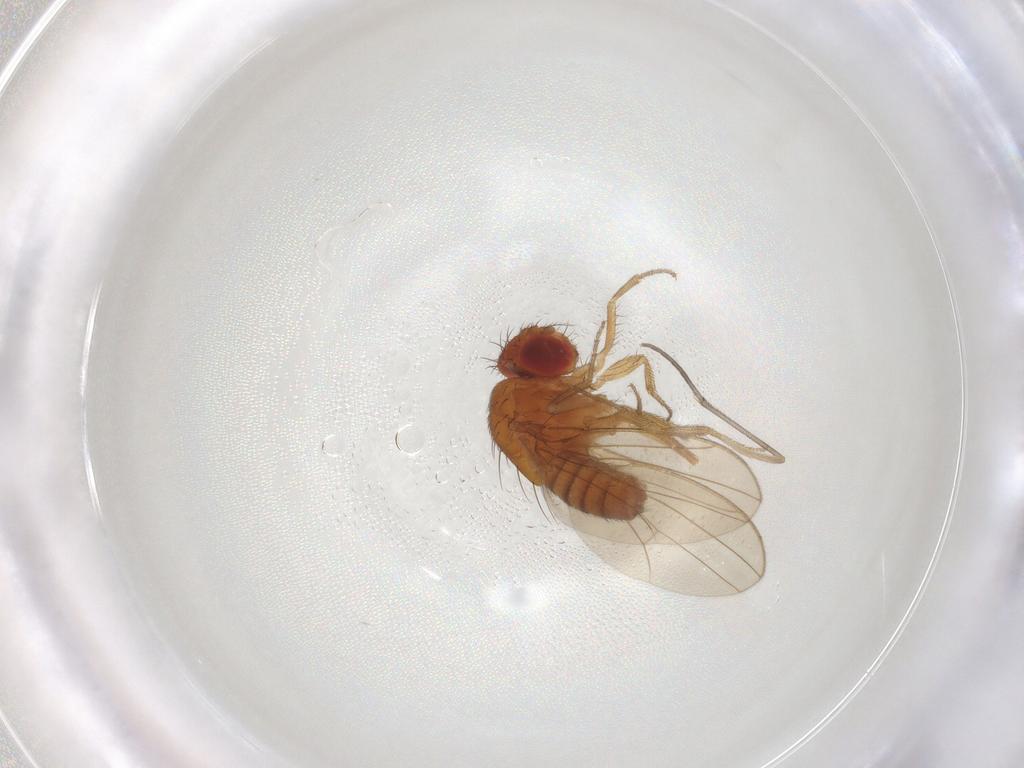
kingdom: Animalia
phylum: Arthropoda
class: Insecta
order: Diptera
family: Drosophilidae
